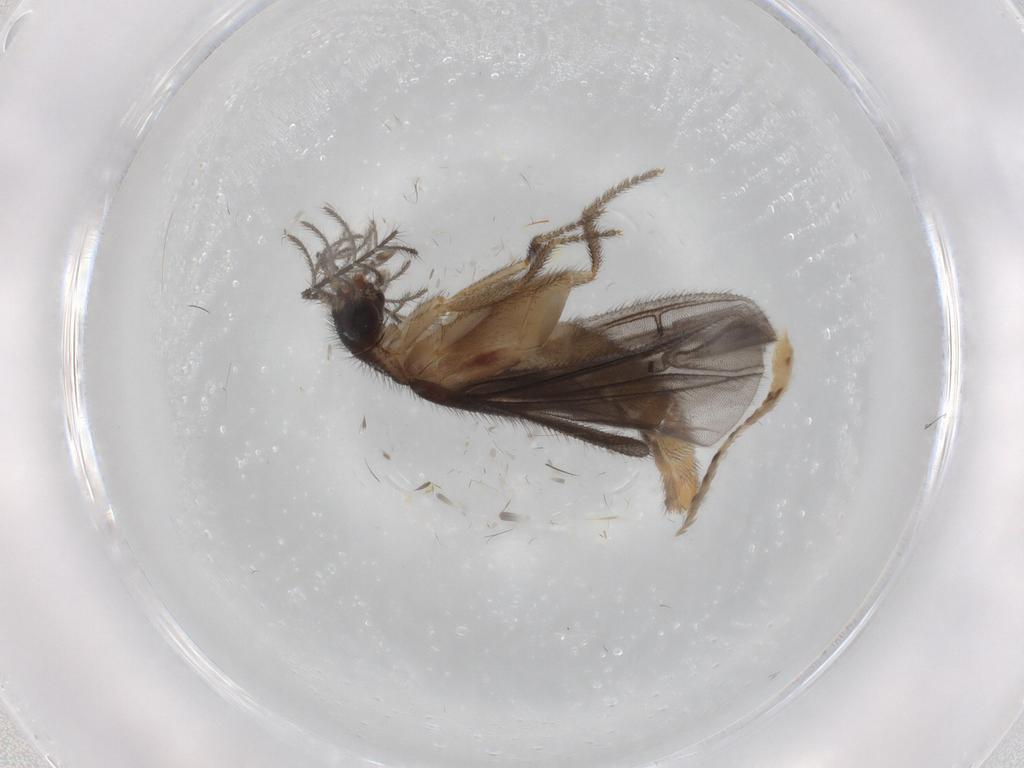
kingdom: Animalia
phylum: Arthropoda
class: Insecta
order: Coleoptera
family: Phengodidae
